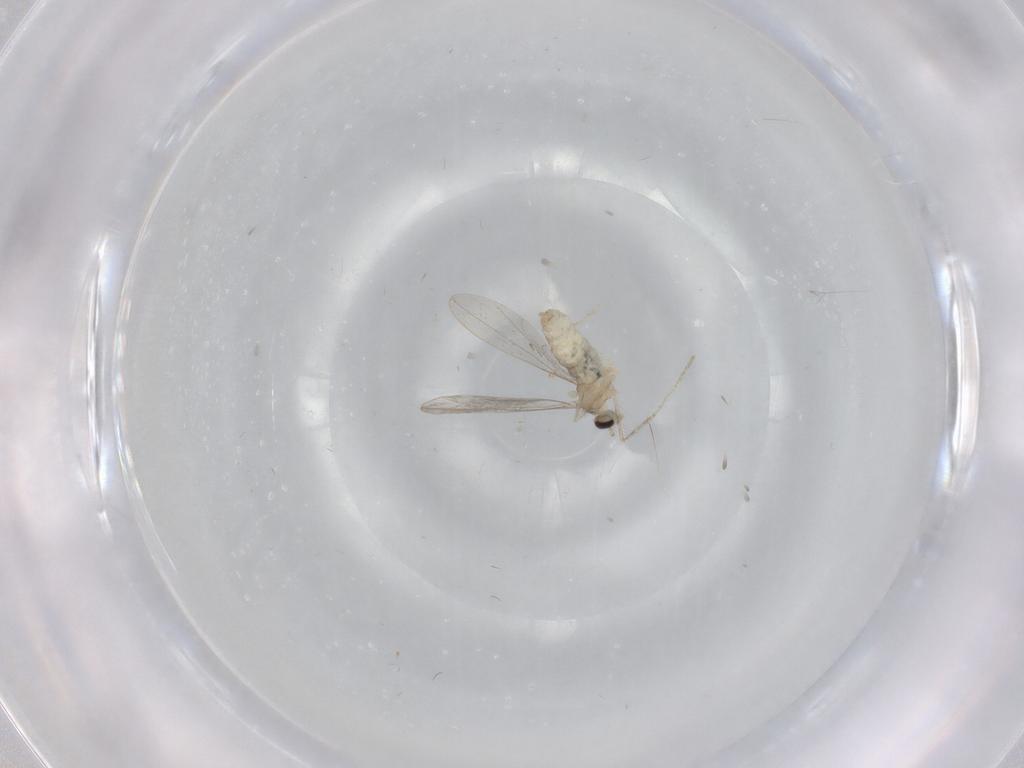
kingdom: Animalia
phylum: Arthropoda
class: Insecta
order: Diptera
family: Cecidomyiidae
